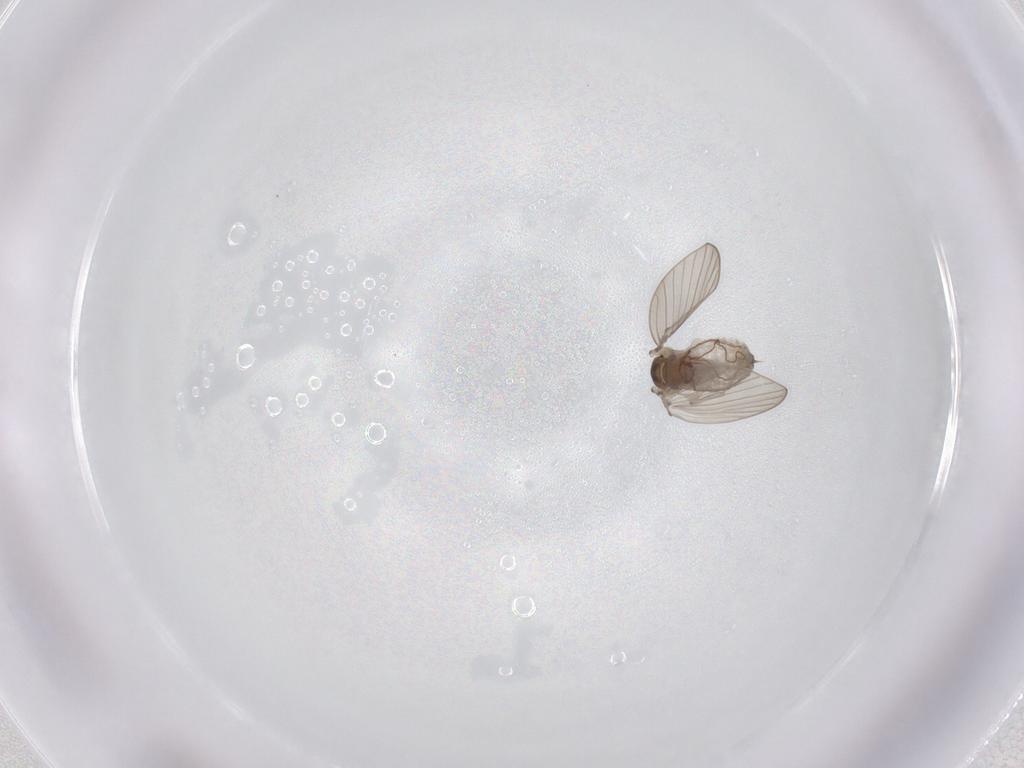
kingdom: Animalia
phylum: Arthropoda
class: Insecta
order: Diptera
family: Psychodidae
